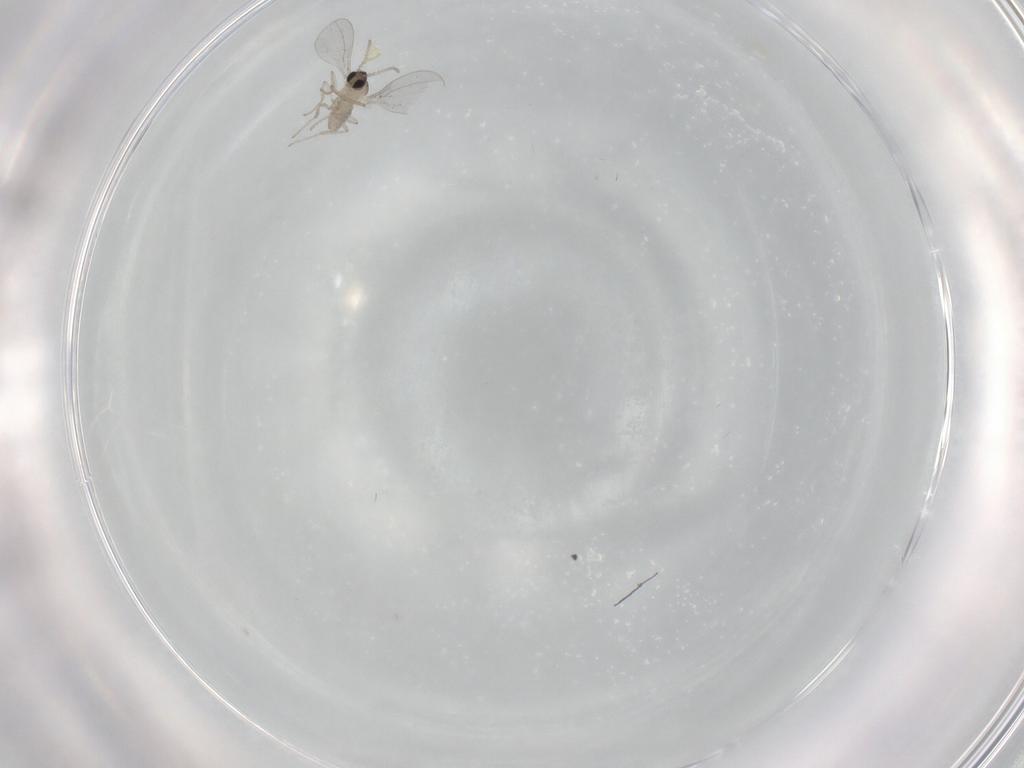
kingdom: Animalia
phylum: Arthropoda
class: Insecta
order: Diptera
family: Cecidomyiidae
